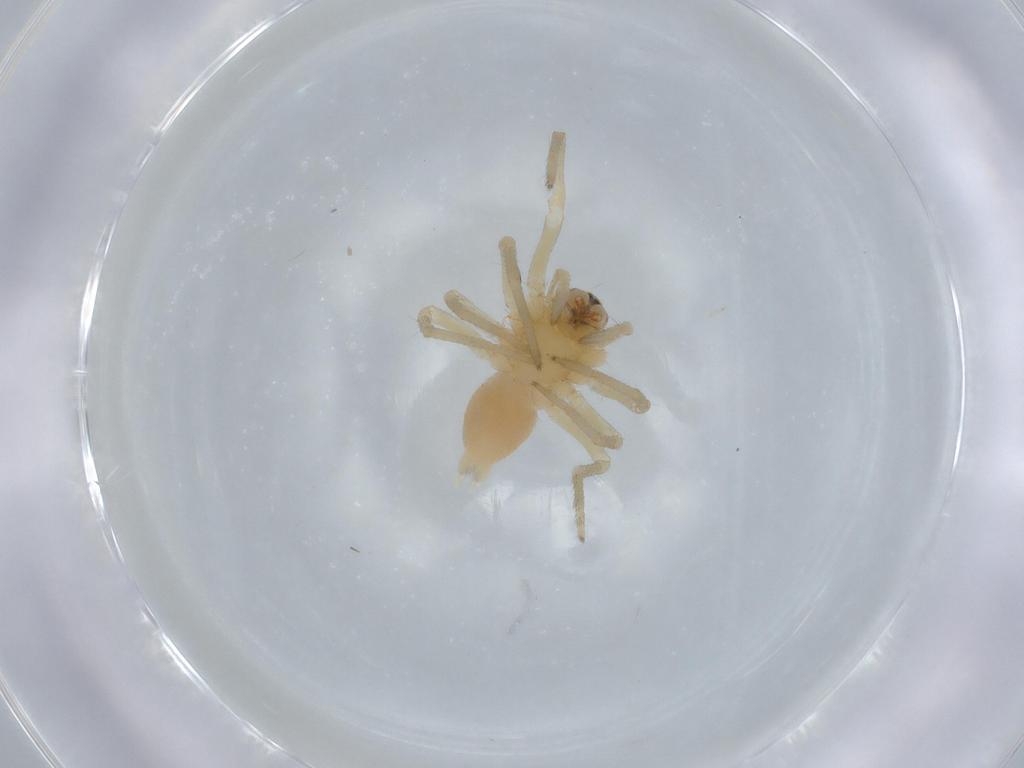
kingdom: Animalia
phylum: Arthropoda
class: Arachnida
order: Araneae
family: Cheiracanthiidae
